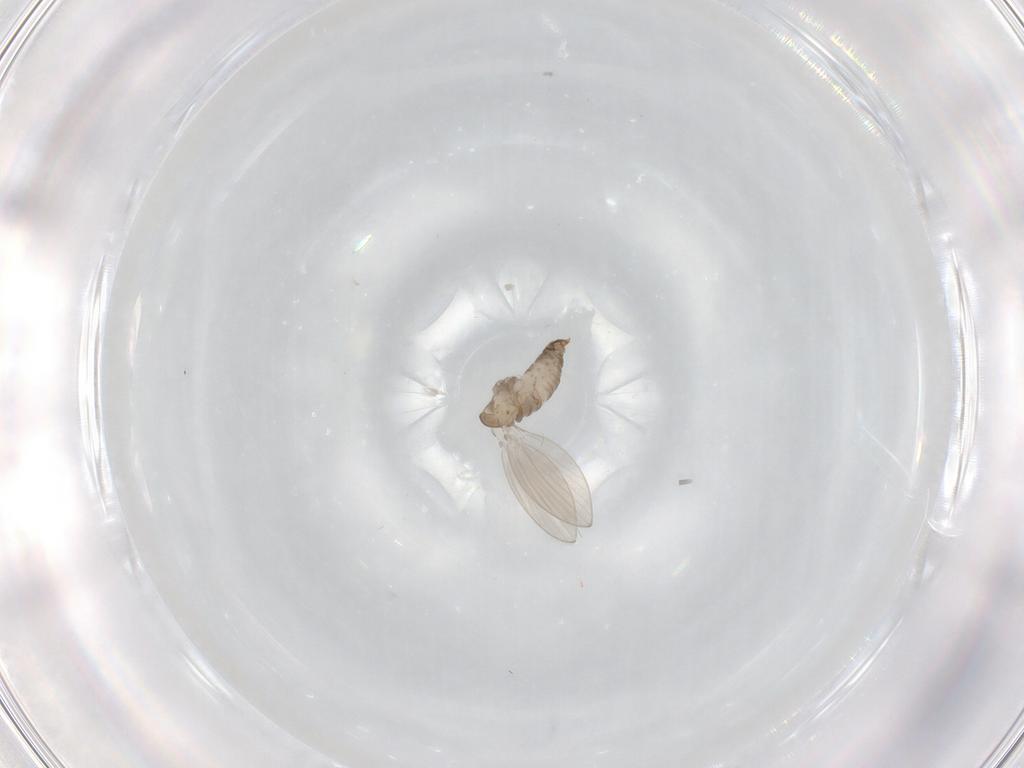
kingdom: Animalia
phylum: Arthropoda
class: Insecta
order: Diptera
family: Psychodidae
